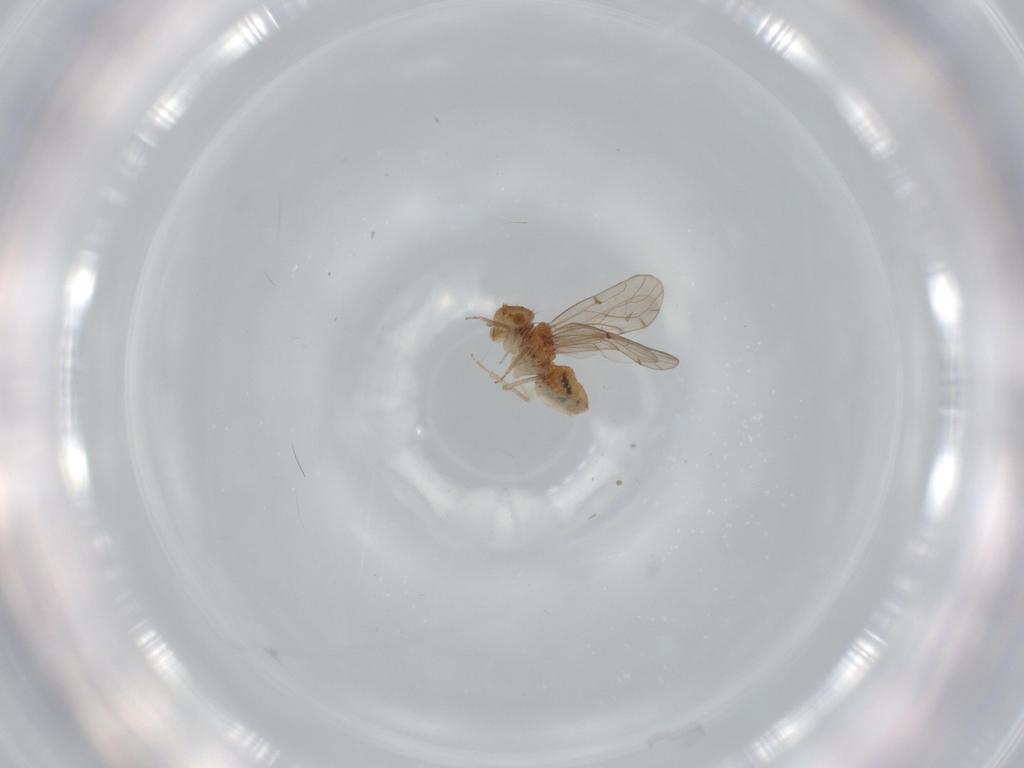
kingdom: Animalia
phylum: Arthropoda
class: Insecta
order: Psocodea
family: Ectopsocidae
